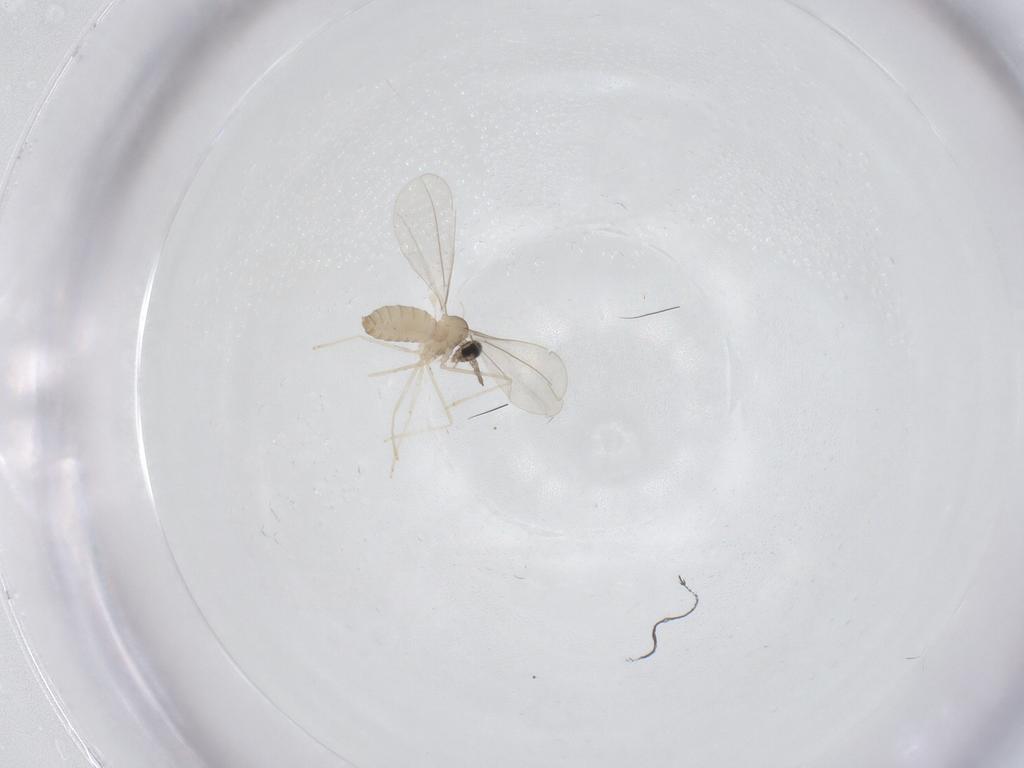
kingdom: Animalia
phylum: Arthropoda
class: Insecta
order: Diptera
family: Cecidomyiidae
